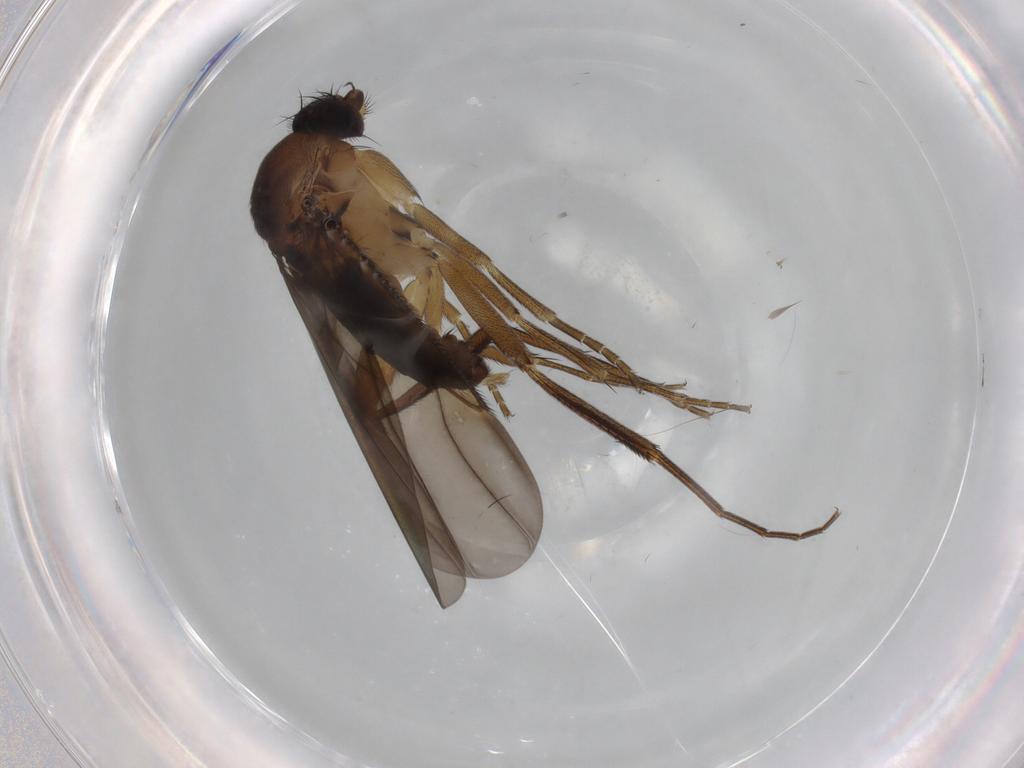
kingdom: Animalia
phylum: Arthropoda
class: Insecta
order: Diptera
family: Phoridae
